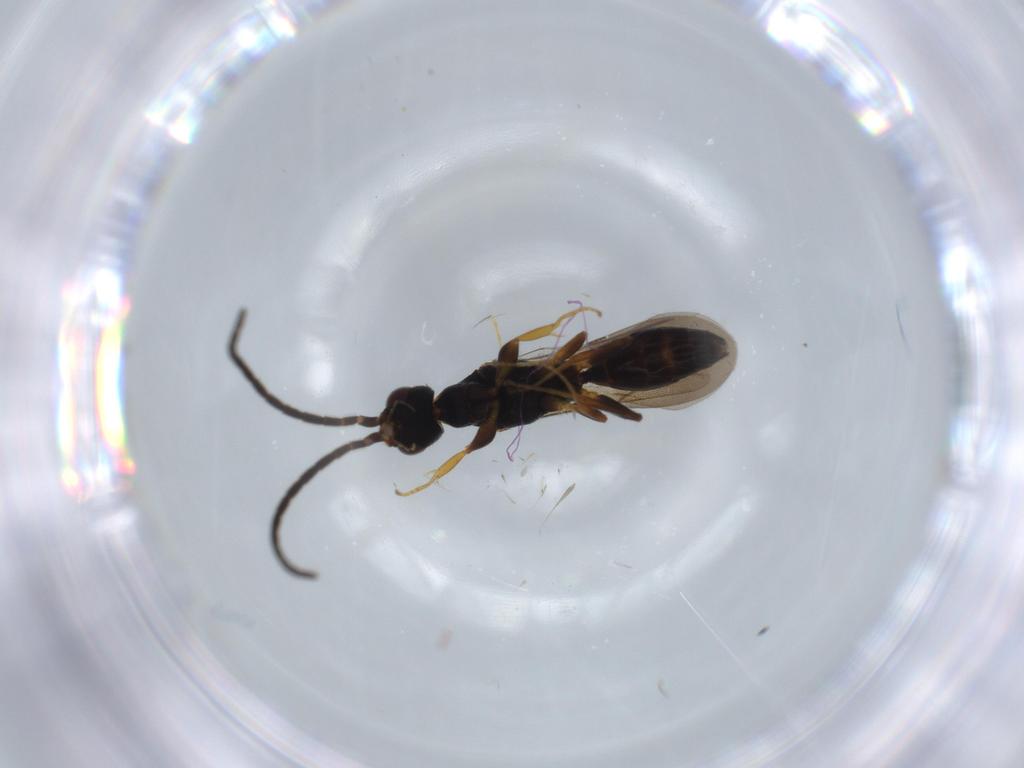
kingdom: Animalia
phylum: Arthropoda
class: Insecta
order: Hymenoptera
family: Bethylidae
